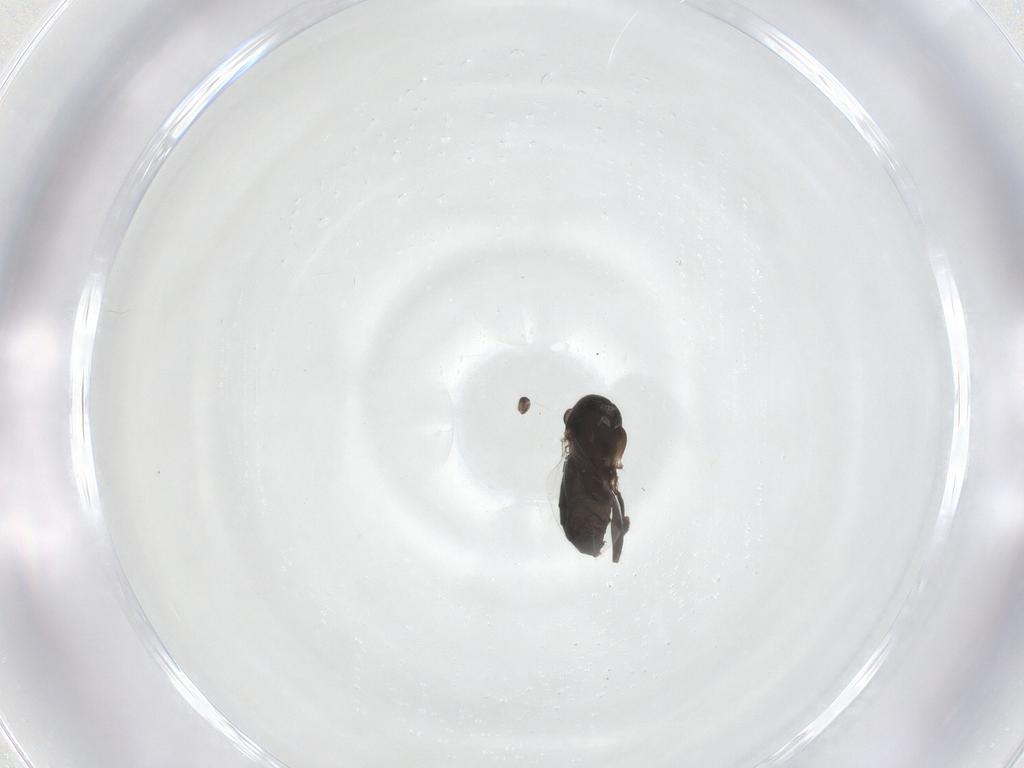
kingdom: Animalia
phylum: Arthropoda
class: Insecta
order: Diptera
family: Phoridae
